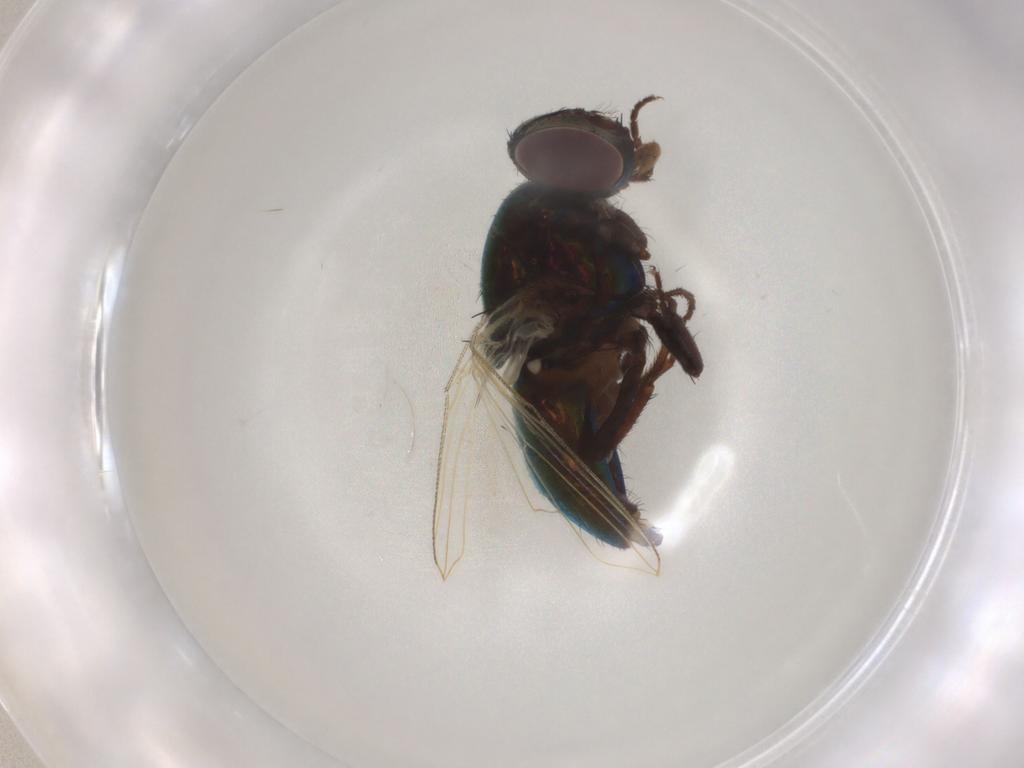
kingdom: Animalia
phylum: Arthropoda
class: Insecta
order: Diptera
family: Muscidae
